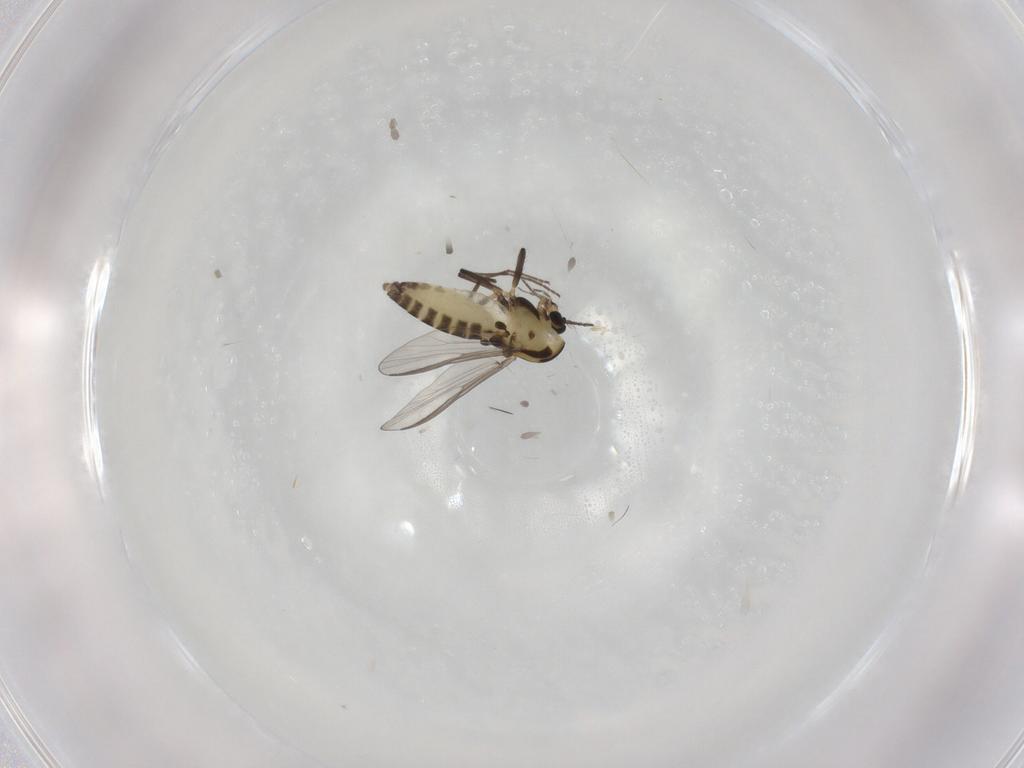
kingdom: Animalia
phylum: Arthropoda
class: Insecta
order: Diptera
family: Chironomidae
